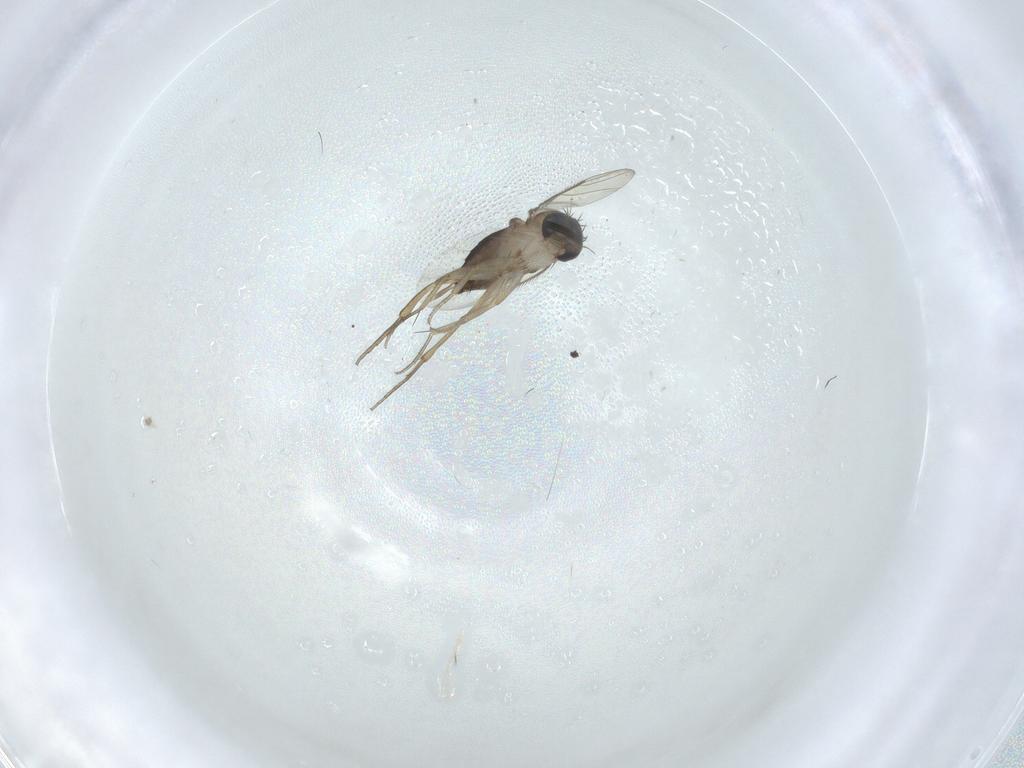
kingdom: Animalia
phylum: Arthropoda
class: Insecta
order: Diptera
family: Psychodidae
